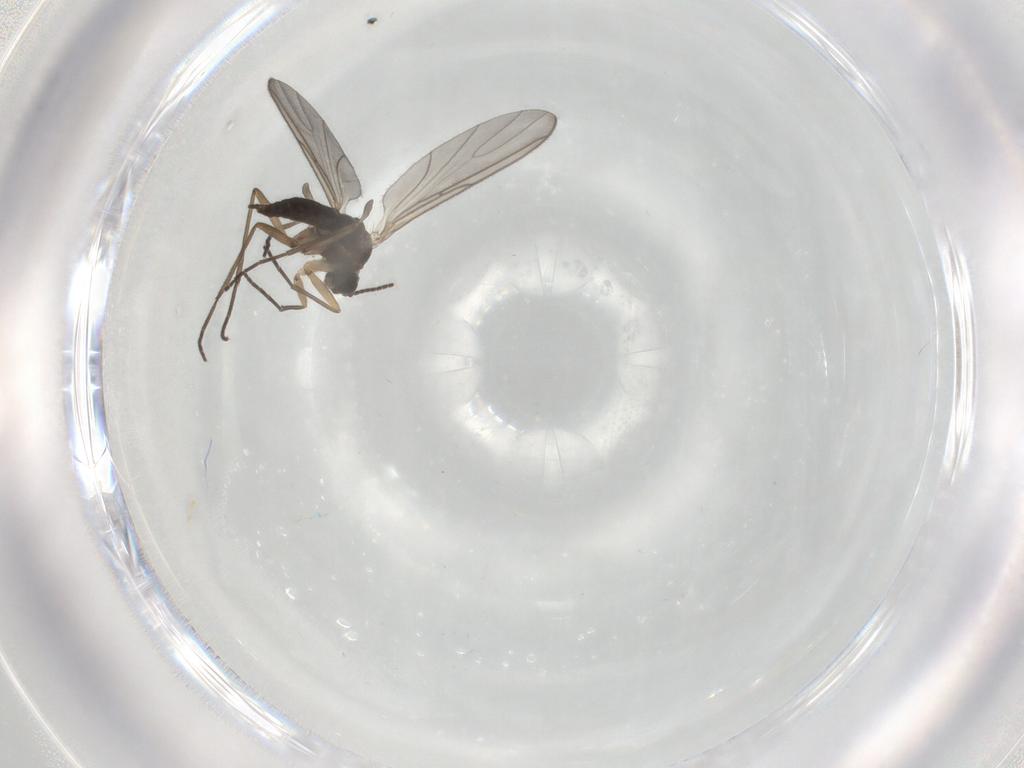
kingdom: Animalia
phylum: Arthropoda
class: Insecta
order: Diptera
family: Sciaridae
